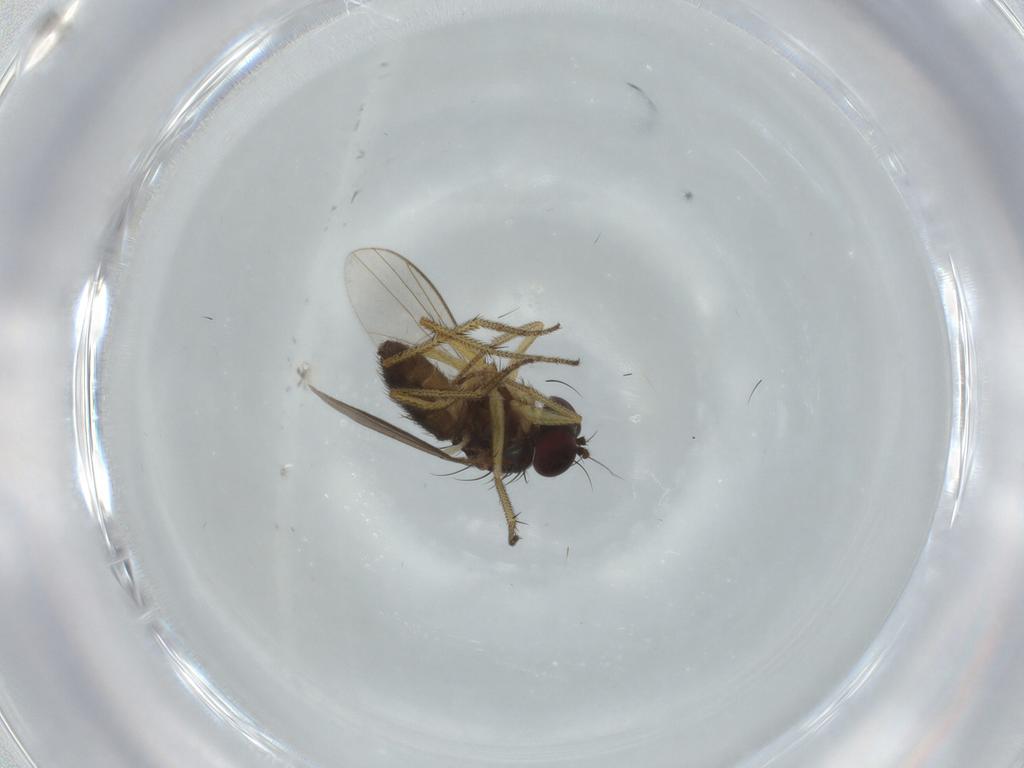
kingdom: Animalia
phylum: Arthropoda
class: Insecta
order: Diptera
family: Dolichopodidae
